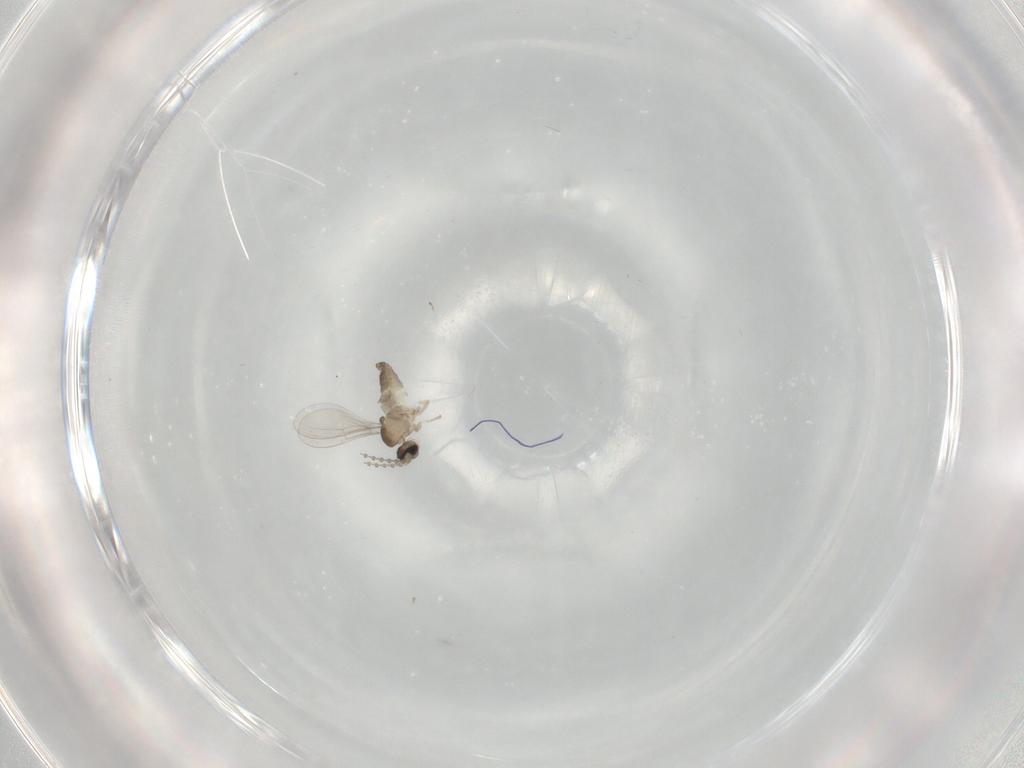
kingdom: Animalia
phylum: Arthropoda
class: Insecta
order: Diptera
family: Cecidomyiidae
